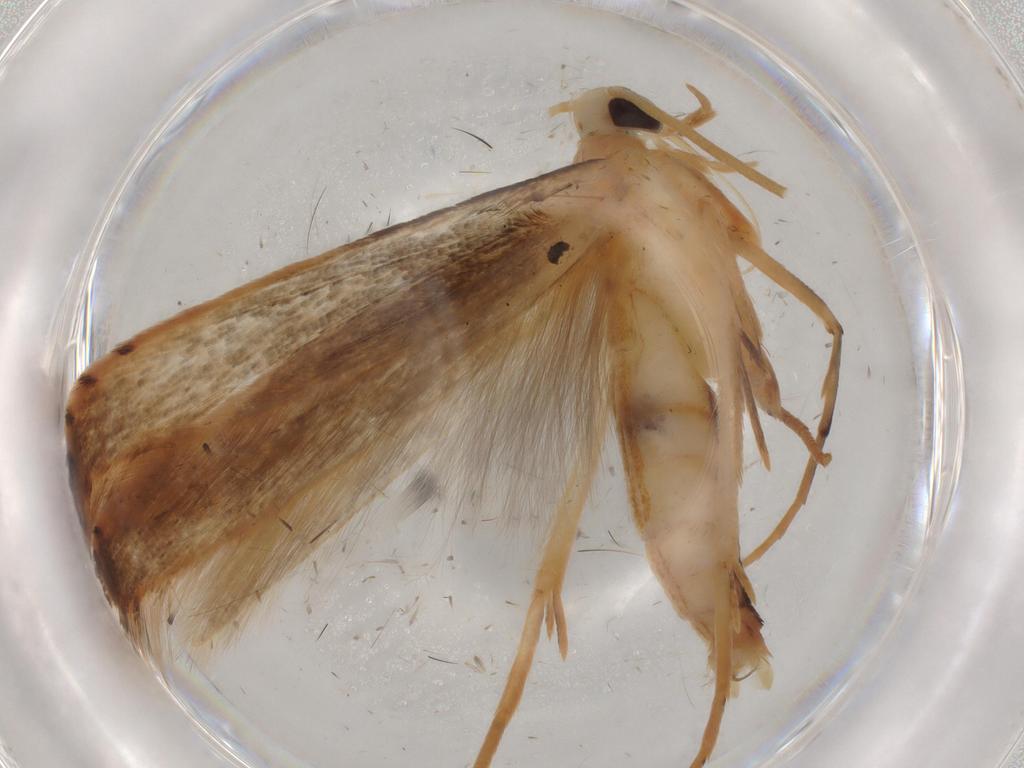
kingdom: Animalia
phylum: Arthropoda
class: Insecta
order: Lepidoptera
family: Batrachedridae
